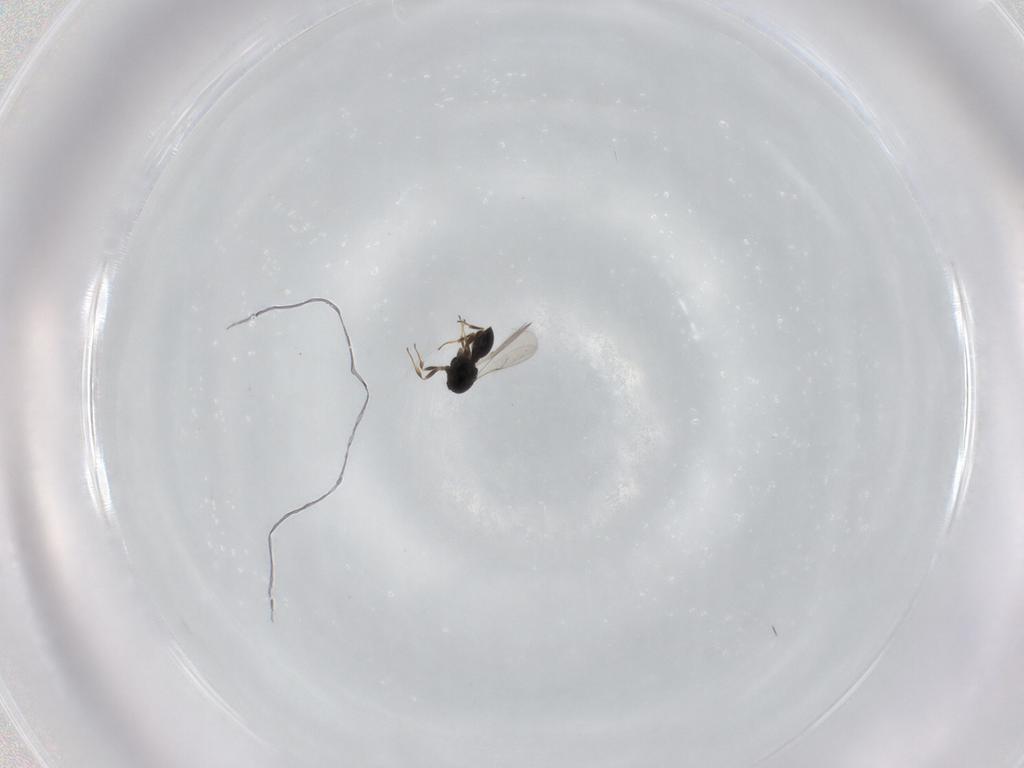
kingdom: Animalia
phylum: Arthropoda
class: Insecta
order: Hymenoptera
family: Scelionidae
